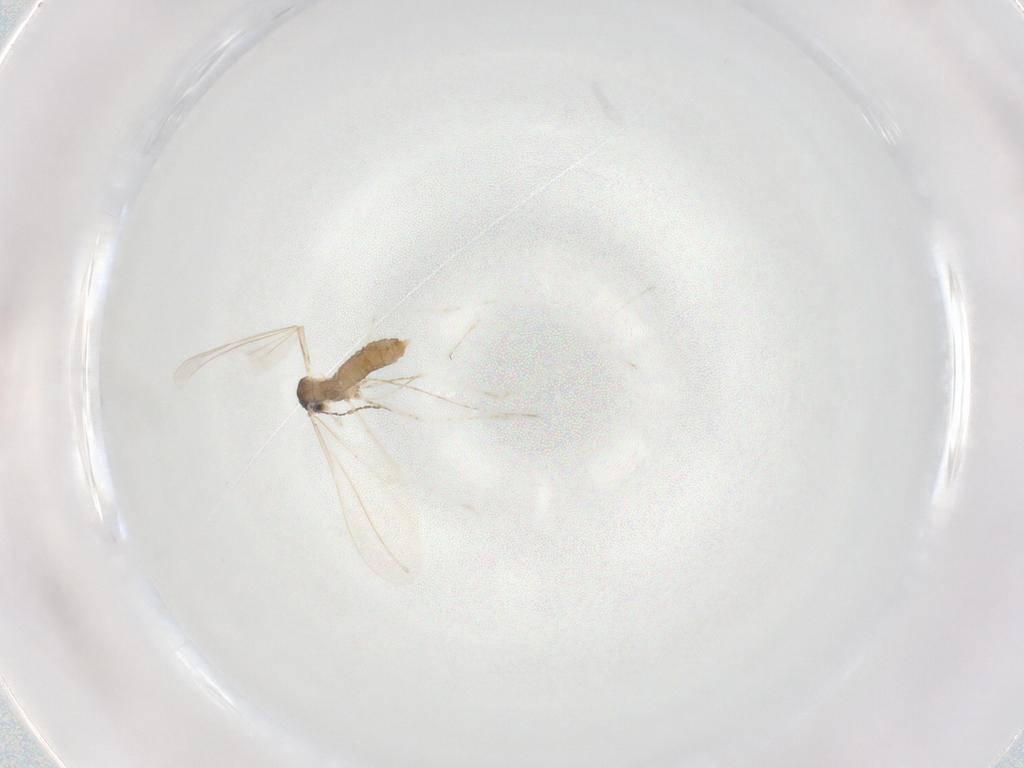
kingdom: Animalia
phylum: Arthropoda
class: Insecta
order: Diptera
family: Cecidomyiidae
